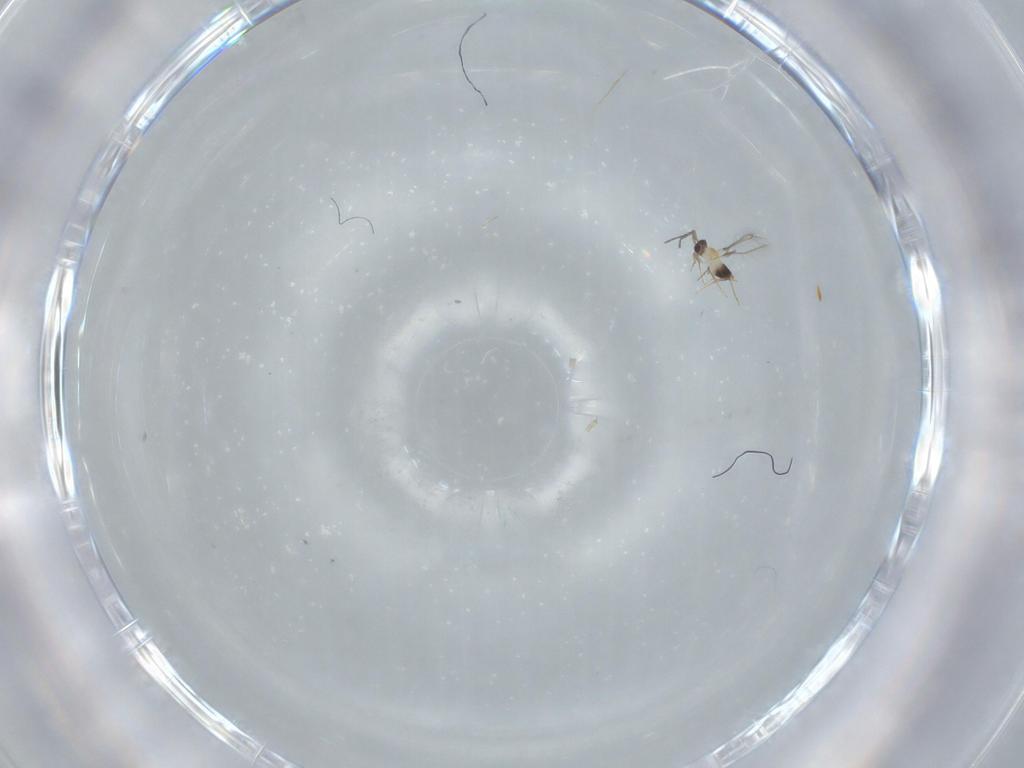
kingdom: Animalia
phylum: Arthropoda
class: Insecta
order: Hymenoptera
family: Mymaridae
